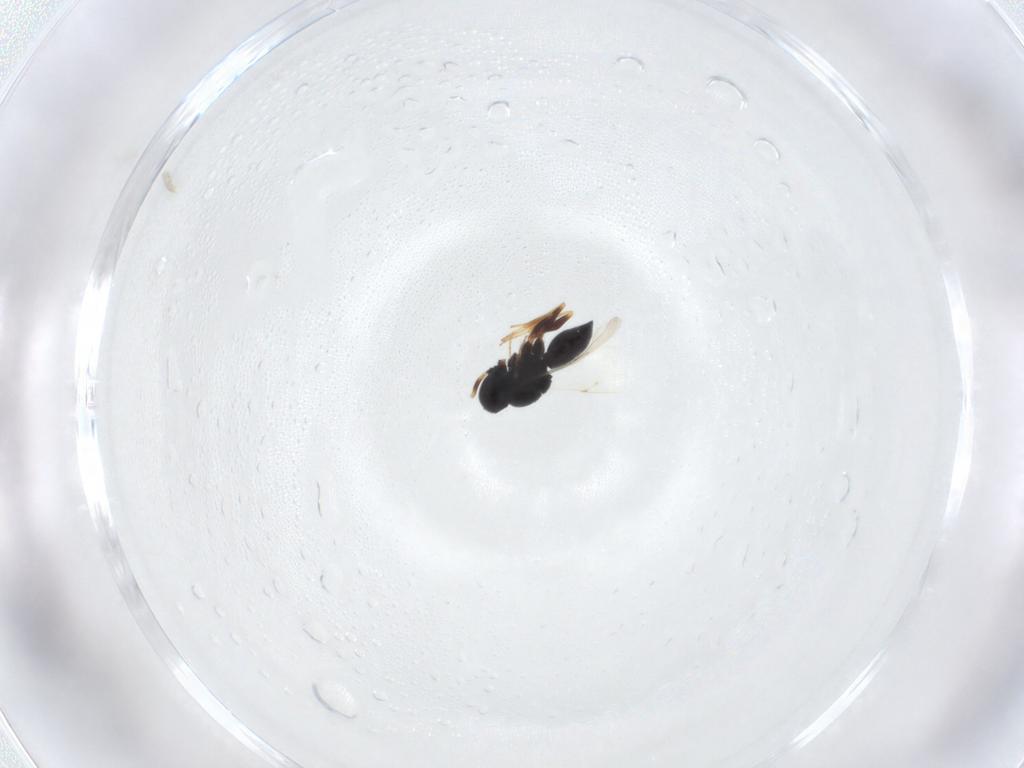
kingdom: Animalia
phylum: Arthropoda
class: Insecta
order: Hymenoptera
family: Scelionidae
